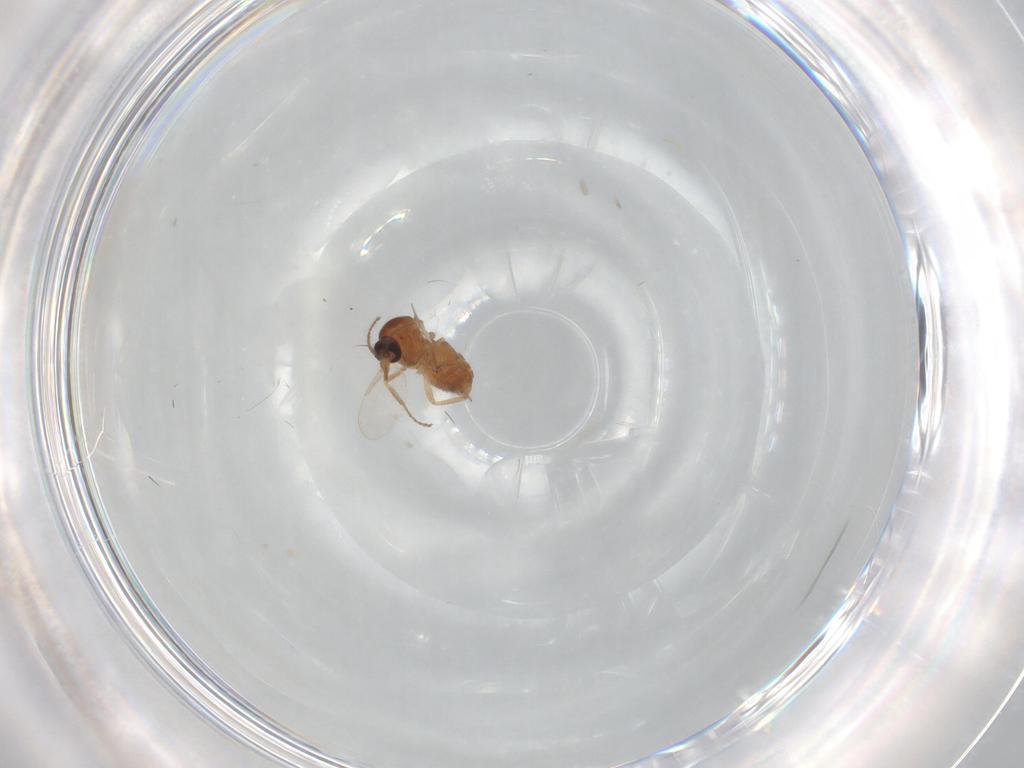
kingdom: Animalia
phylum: Arthropoda
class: Insecta
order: Diptera
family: Ceratopogonidae
